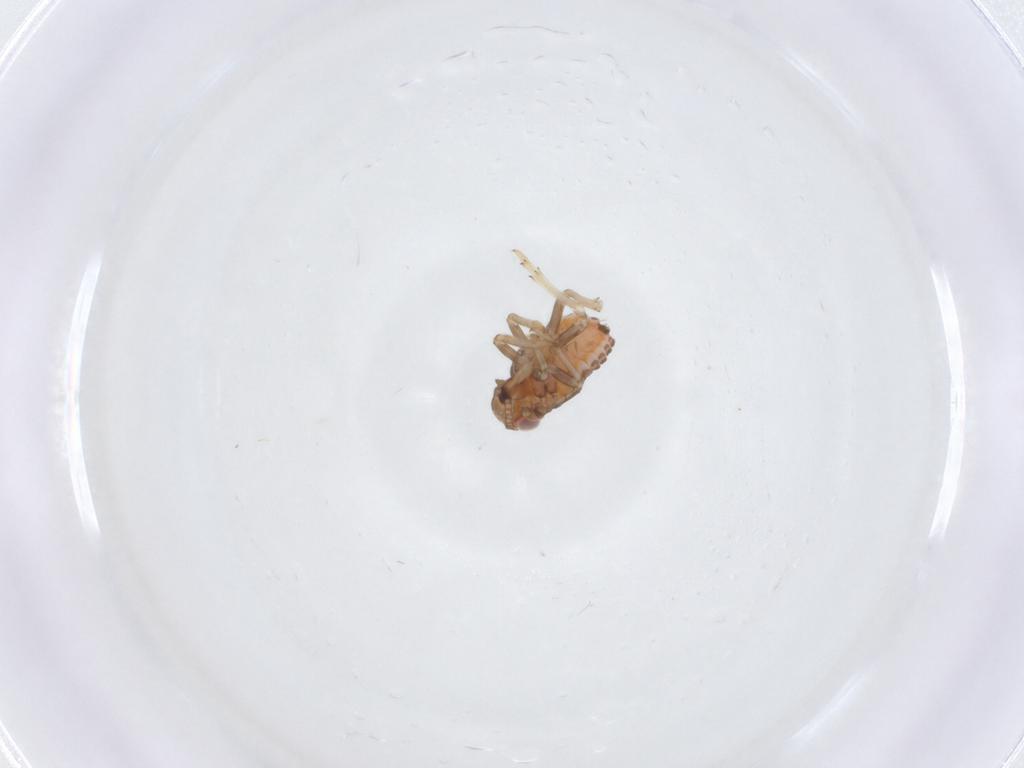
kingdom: Animalia
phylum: Arthropoda
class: Insecta
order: Hemiptera
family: Issidae
